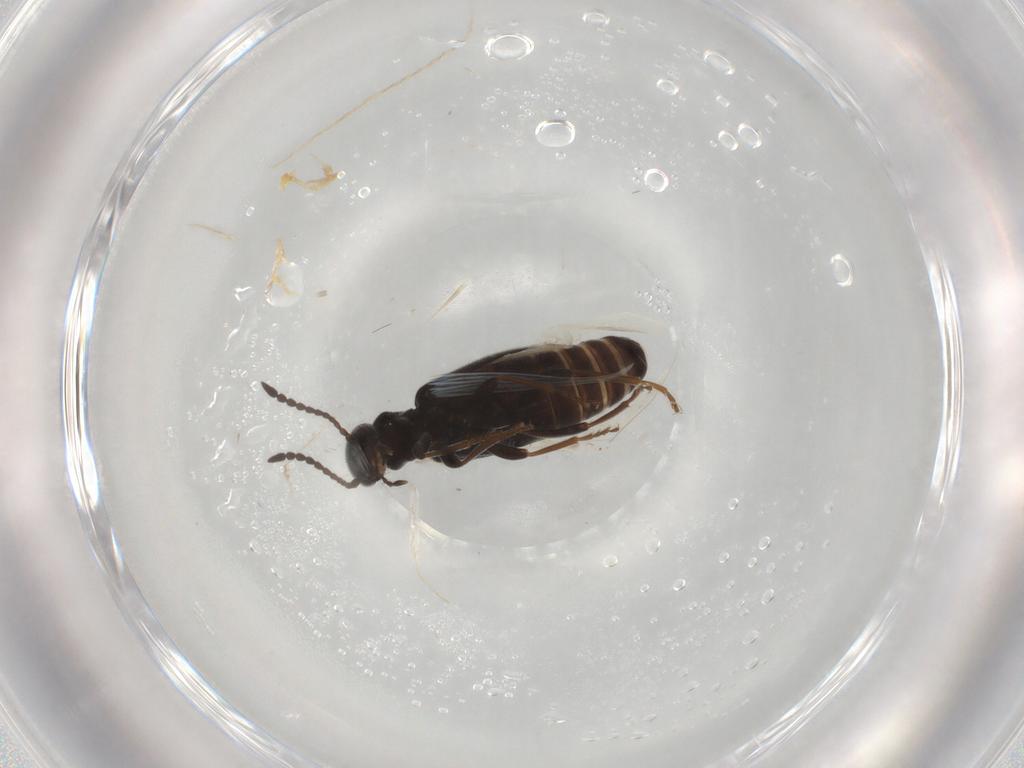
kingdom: Animalia
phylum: Arthropoda
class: Insecta
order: Coleoptera
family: Anthicidae
